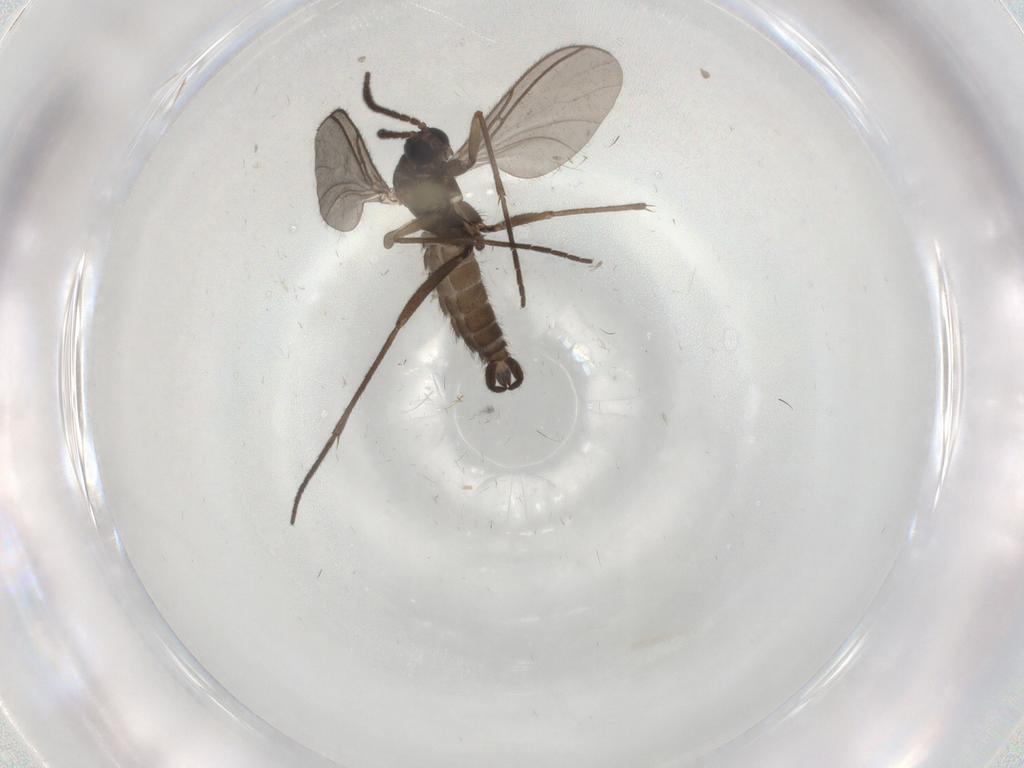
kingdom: Animalia
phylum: Arthropoda
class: Insecta
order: Diptera
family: Sciaridae
